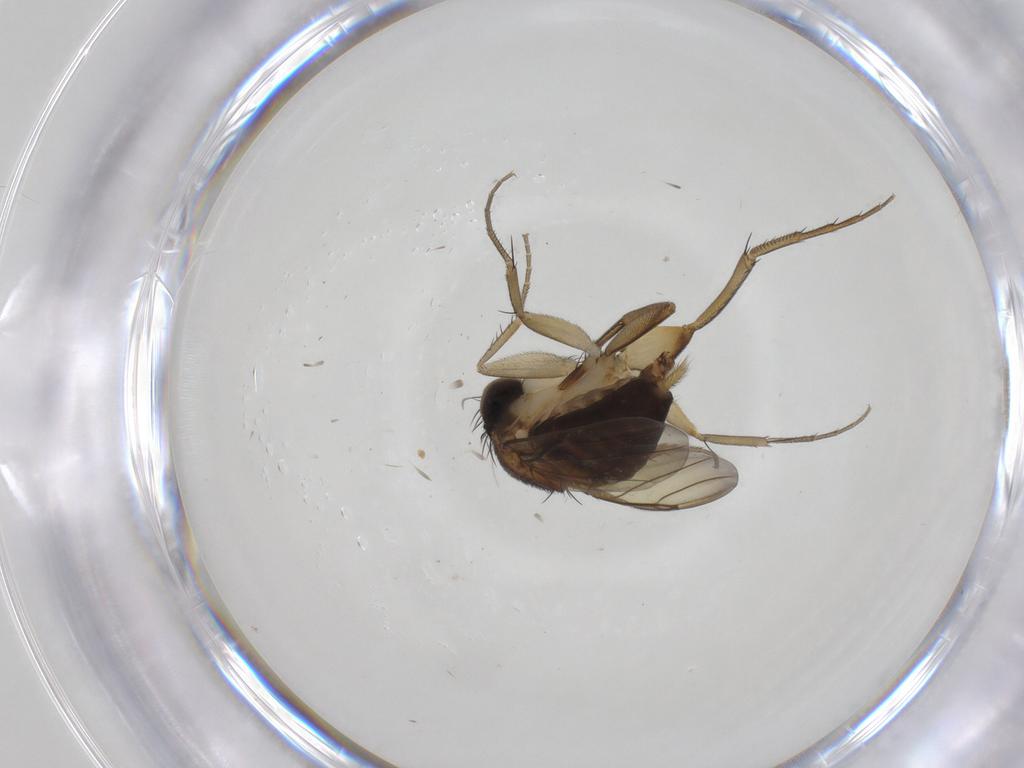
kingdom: Animalia
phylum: Arthropoda
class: Insecta
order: Diptera
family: Phoridae
